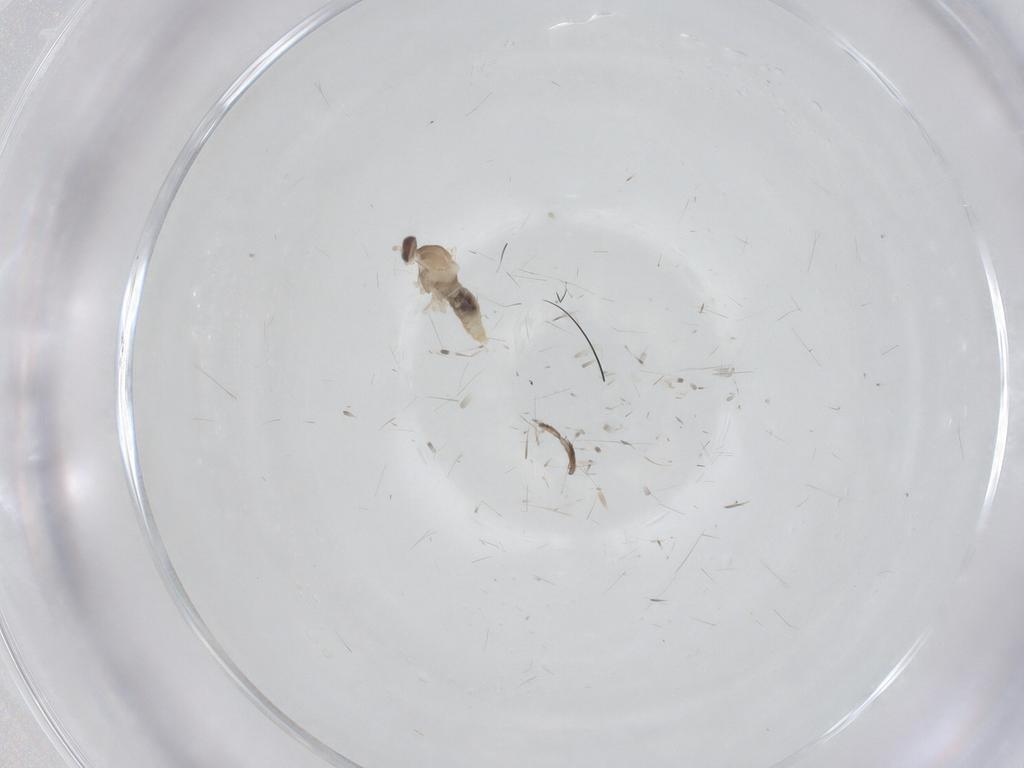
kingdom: Animalia
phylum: Arthropoda
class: Insecta
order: Diptera
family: Cecidomyiidae
